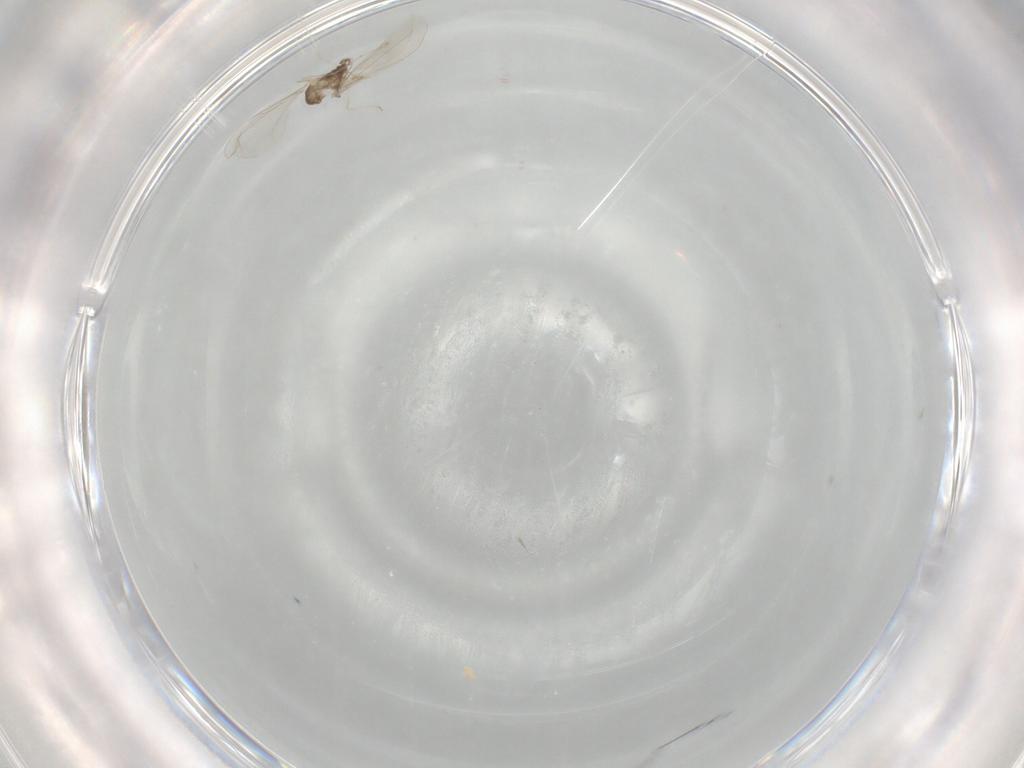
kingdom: Animalia
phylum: Arthropoda
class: Insecta
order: Diptera
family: Cecidomyiidae
